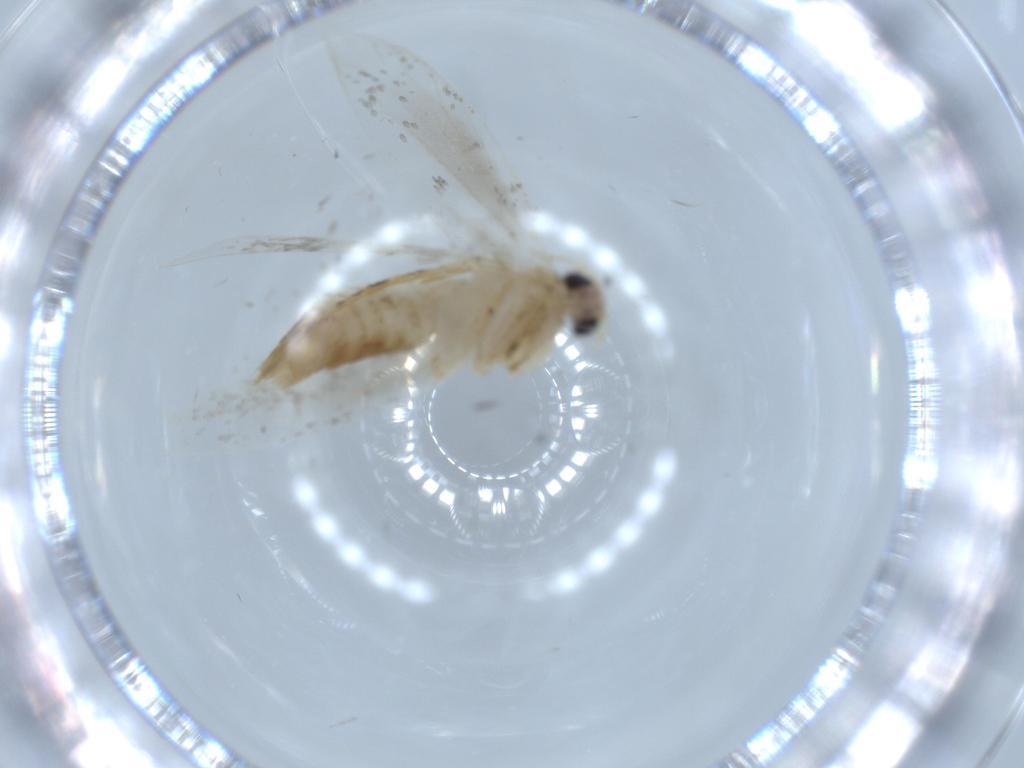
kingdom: Animalia
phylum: Arthropoda
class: Insecta
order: Lepidoptera
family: Tineidae
